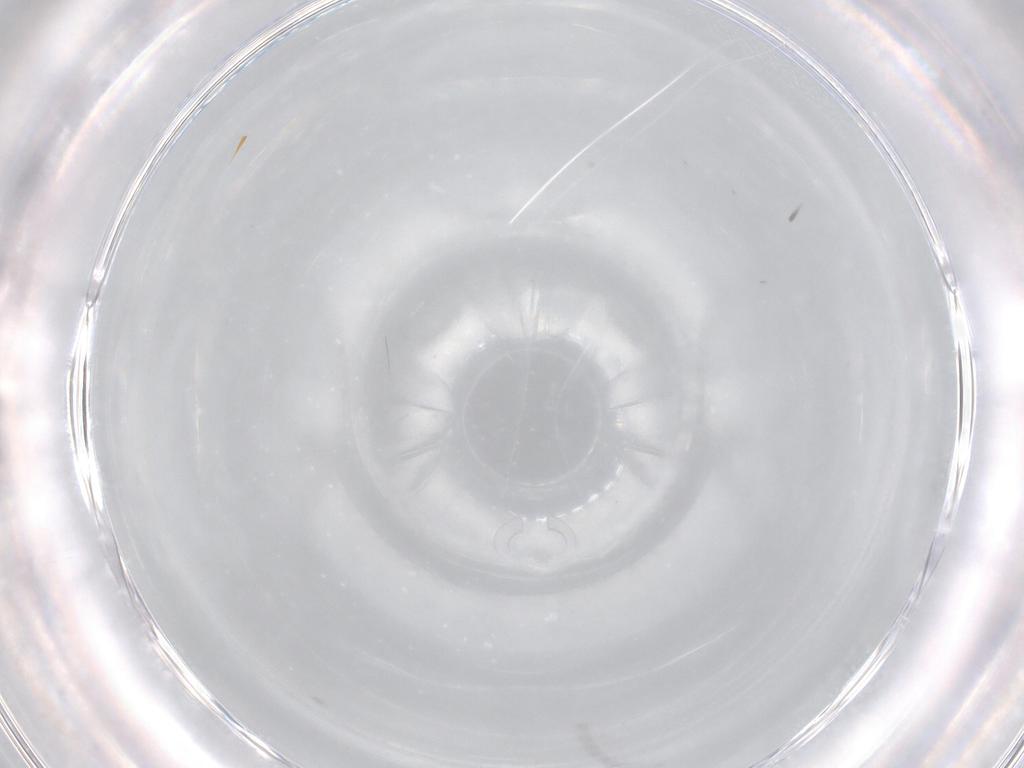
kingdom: Animalia
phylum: Arthropoda
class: Insecta
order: Diptera
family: Cecidomyiidae
